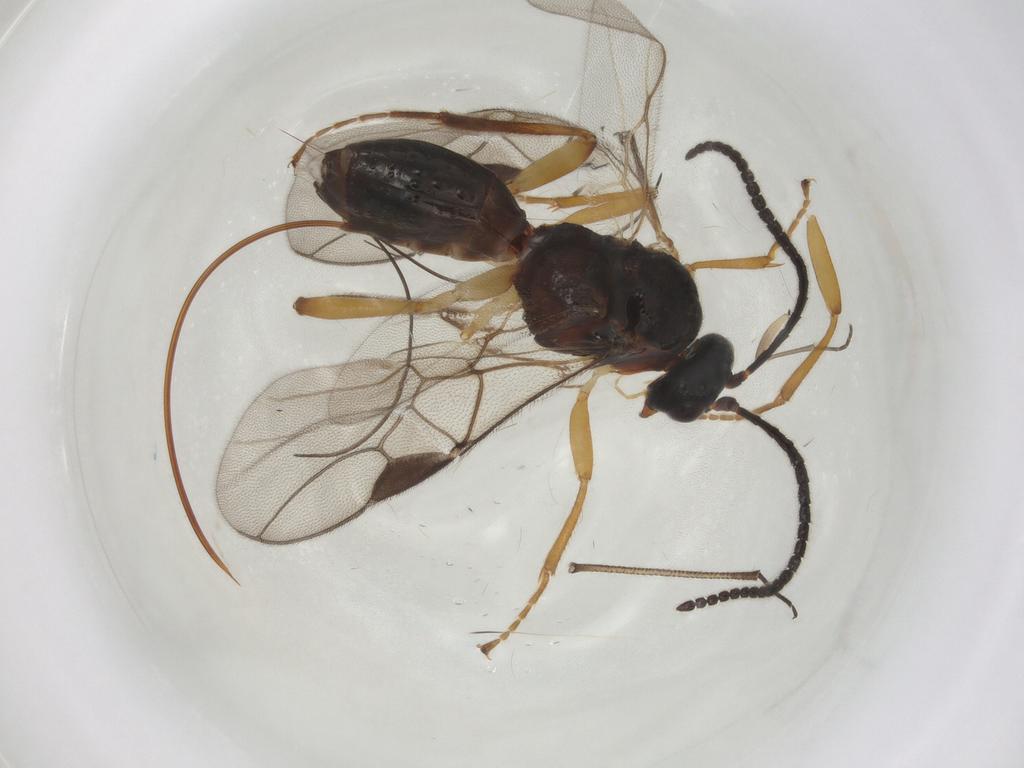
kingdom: Animalia
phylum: Arthropoda
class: Insecta
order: Hymenoptera
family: Braconidae
